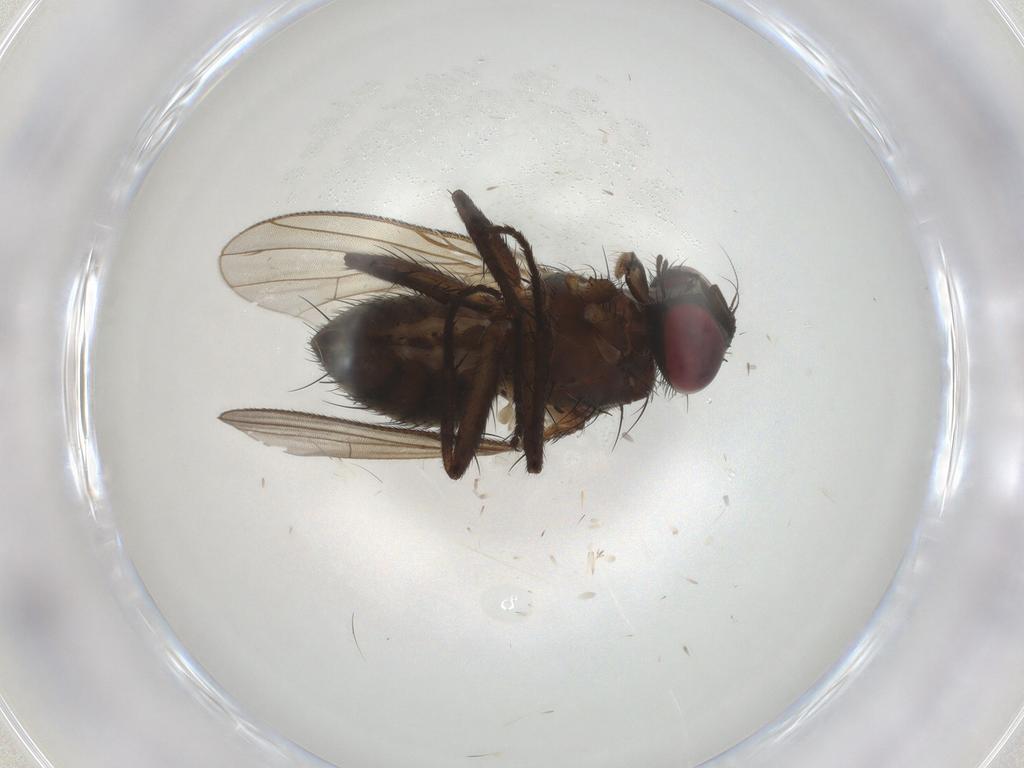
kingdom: Animalia
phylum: Arthropoda
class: Insecta
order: Diptera
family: Muscidae
